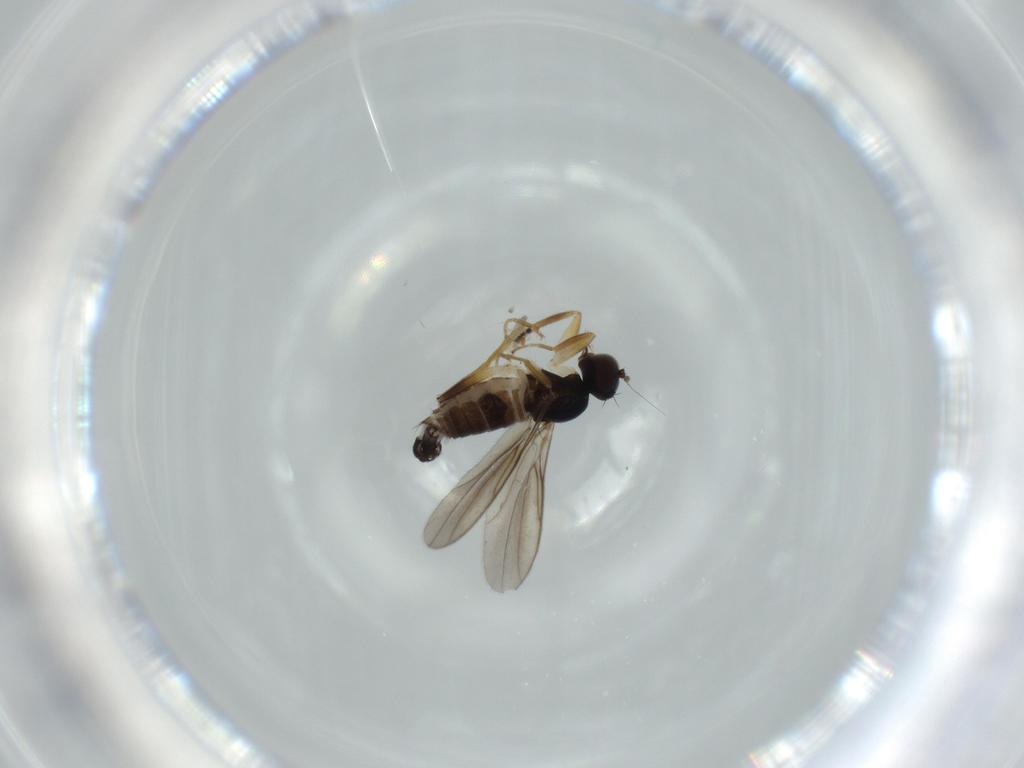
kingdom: Animalia
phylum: Arthropoda
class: Insecta
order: Diptera
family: Hybotidae
